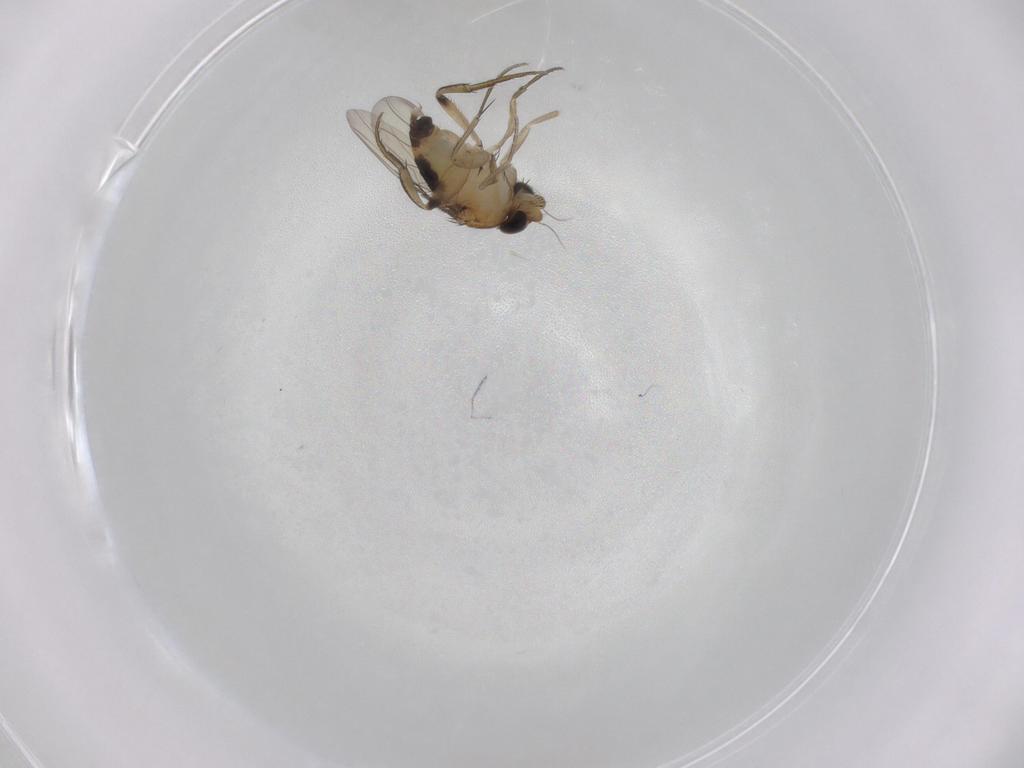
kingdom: Animalia
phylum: Arthropoda
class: Insecta
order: Diptera
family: Phoridae
